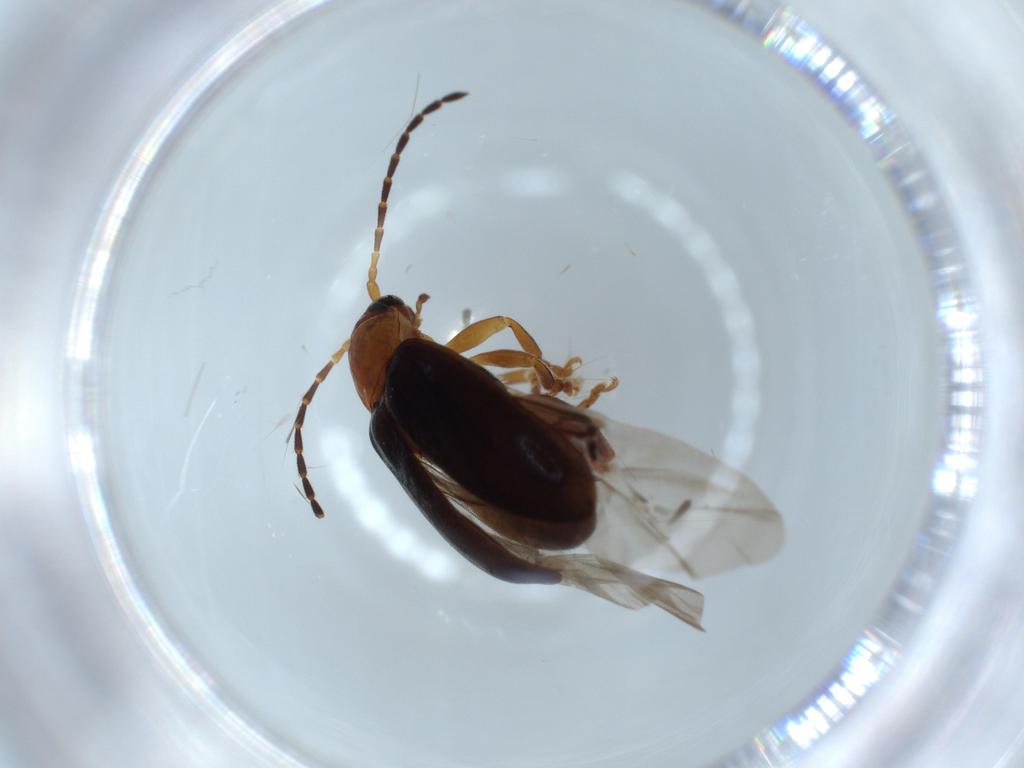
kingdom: Animalia
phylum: Arthropoda
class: Insecta
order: Coleoptera
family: Chrysomelidae
